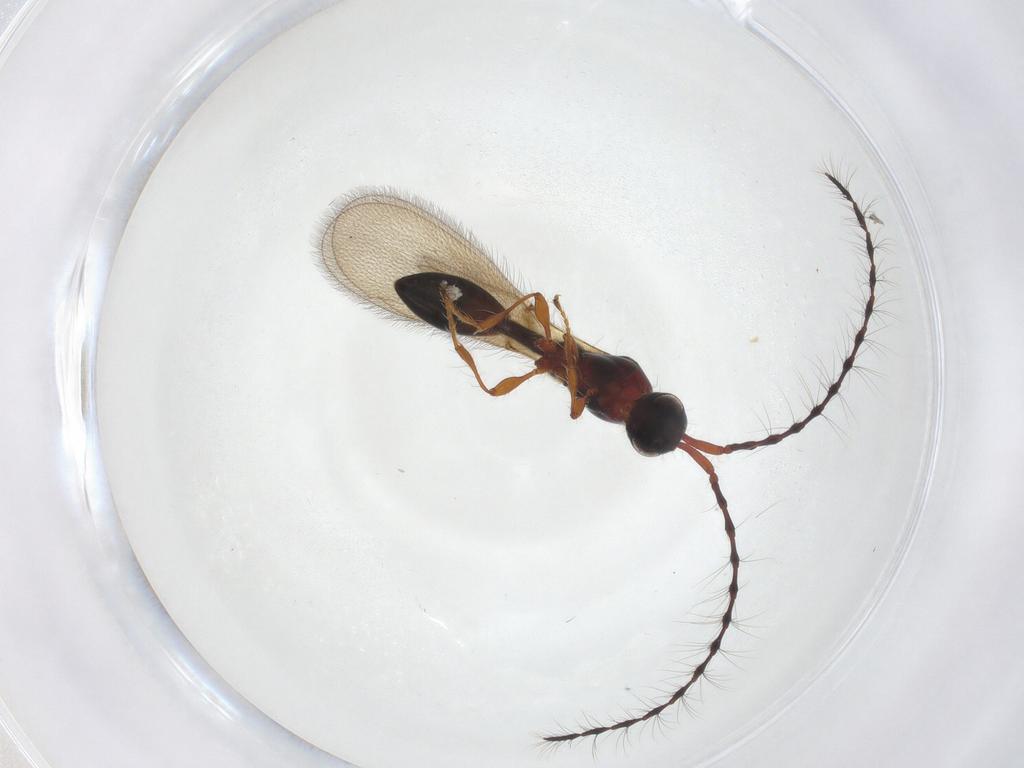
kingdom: Animalia
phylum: Arthropoda
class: Insecta
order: Hymenoptera
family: Diapriidae
